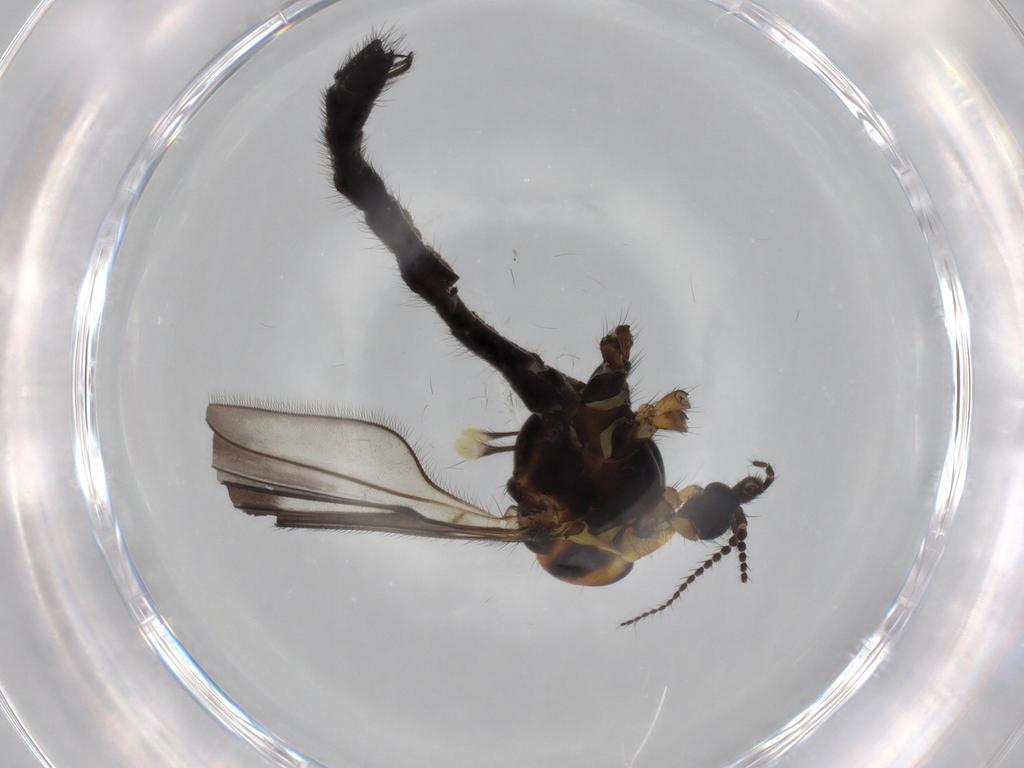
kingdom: Animalia
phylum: Arthropoda
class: Insecta
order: Diptera
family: Limoniidae
